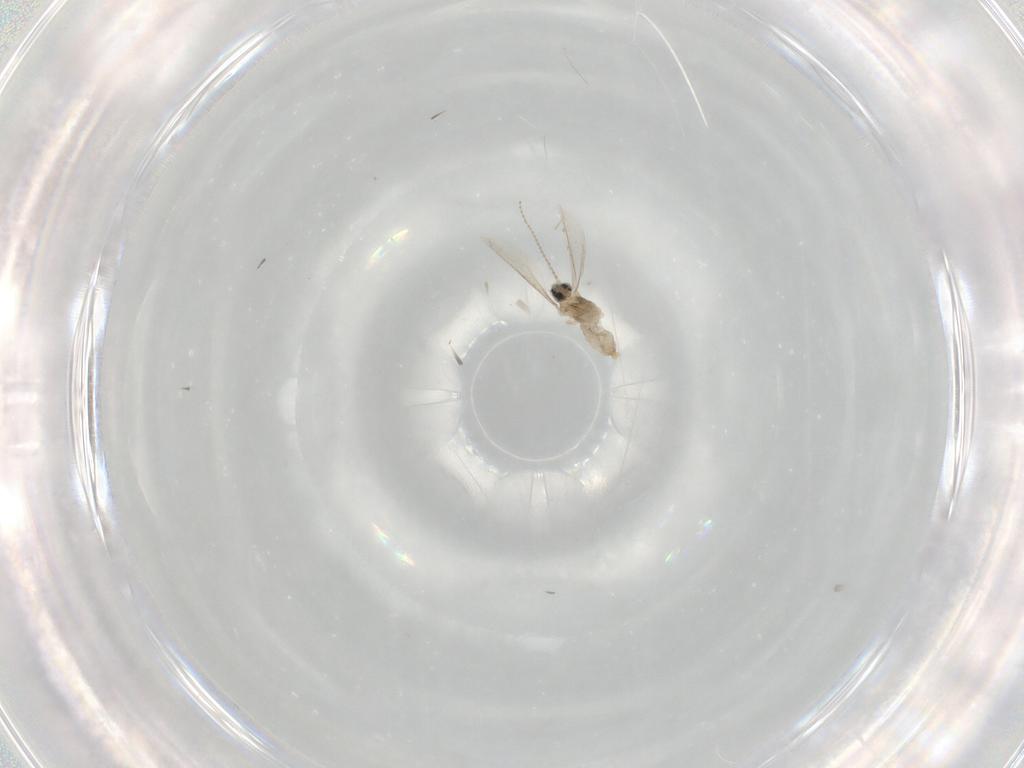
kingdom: Animalia
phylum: Arthropoda
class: Insecta
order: Diptera
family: Cecidomyiidae
